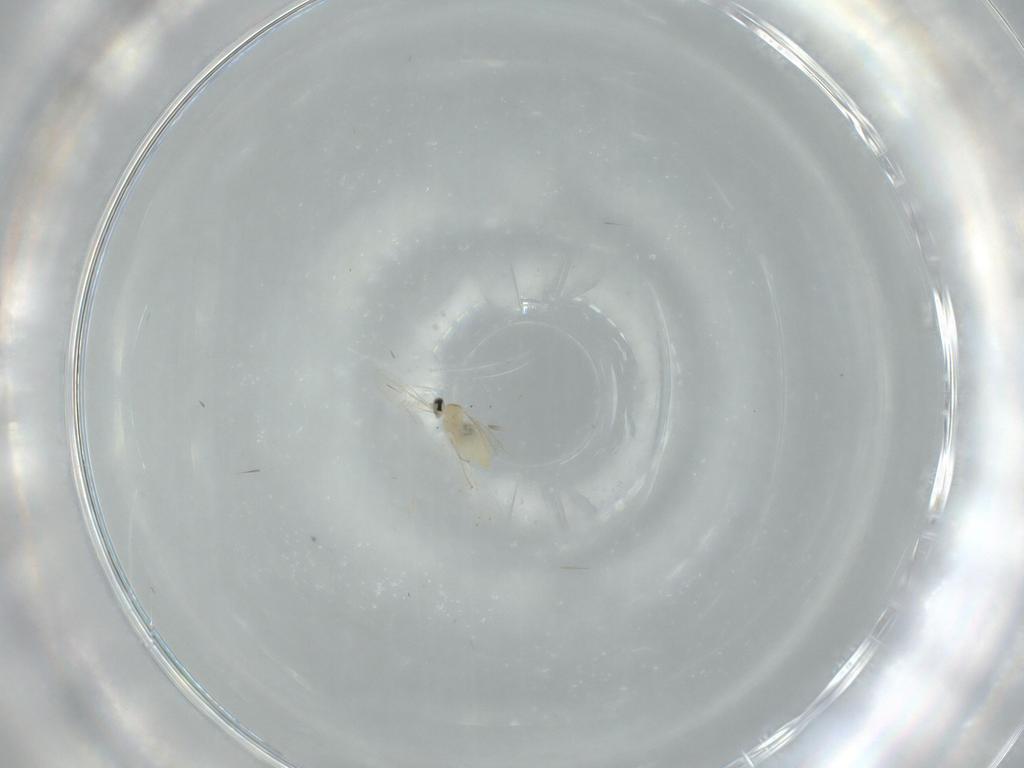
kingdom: Animalia
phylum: Arthropoda
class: Insecta
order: Diptera
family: Cecidomyiidae
